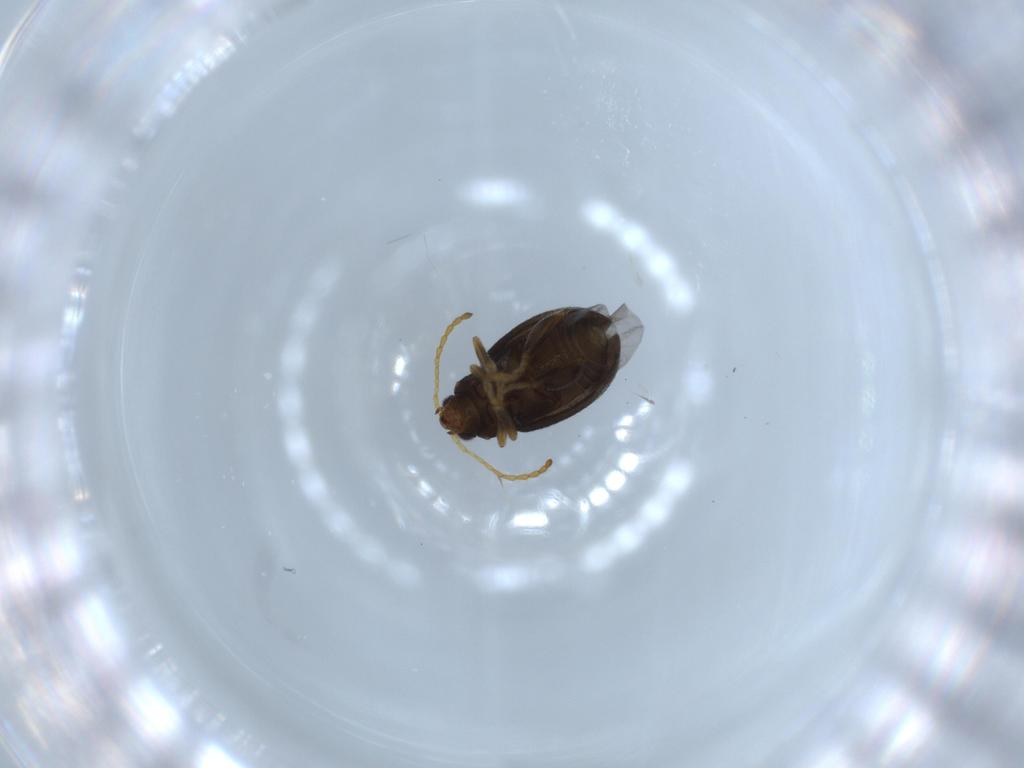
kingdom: Animalia
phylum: Arthropoda
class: Insecta
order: Coleoptera
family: Chrysomelidae
